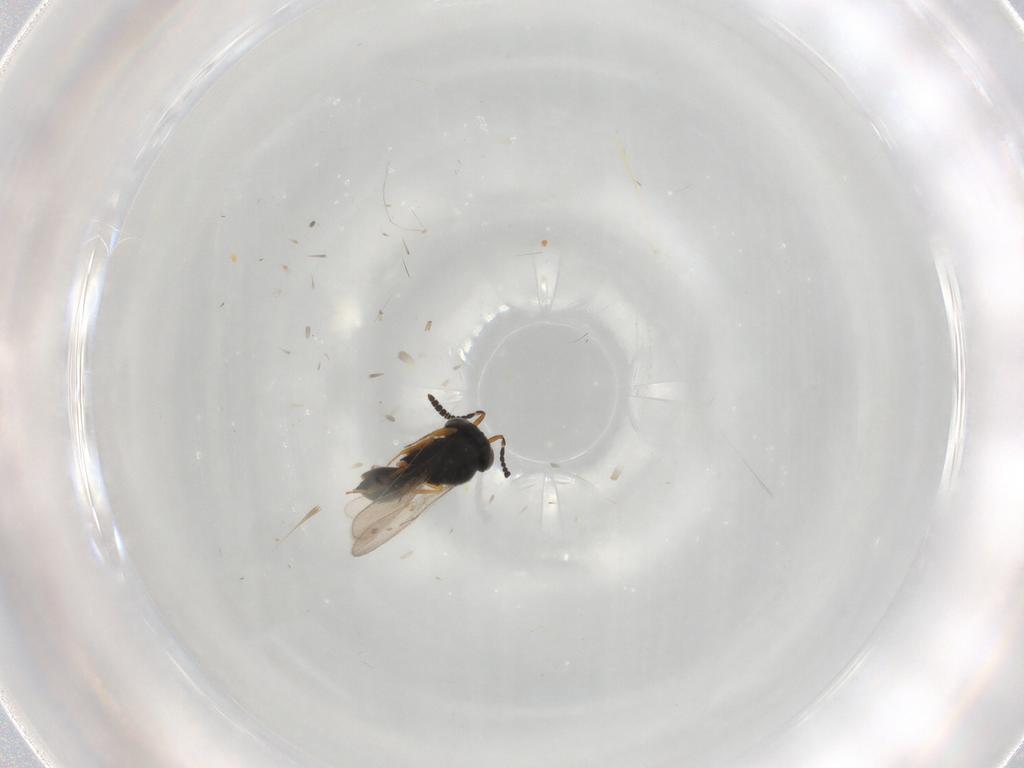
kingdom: Animalia
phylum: Arthropoda
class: Insecta
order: Hymenoptera
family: Scelionidae
